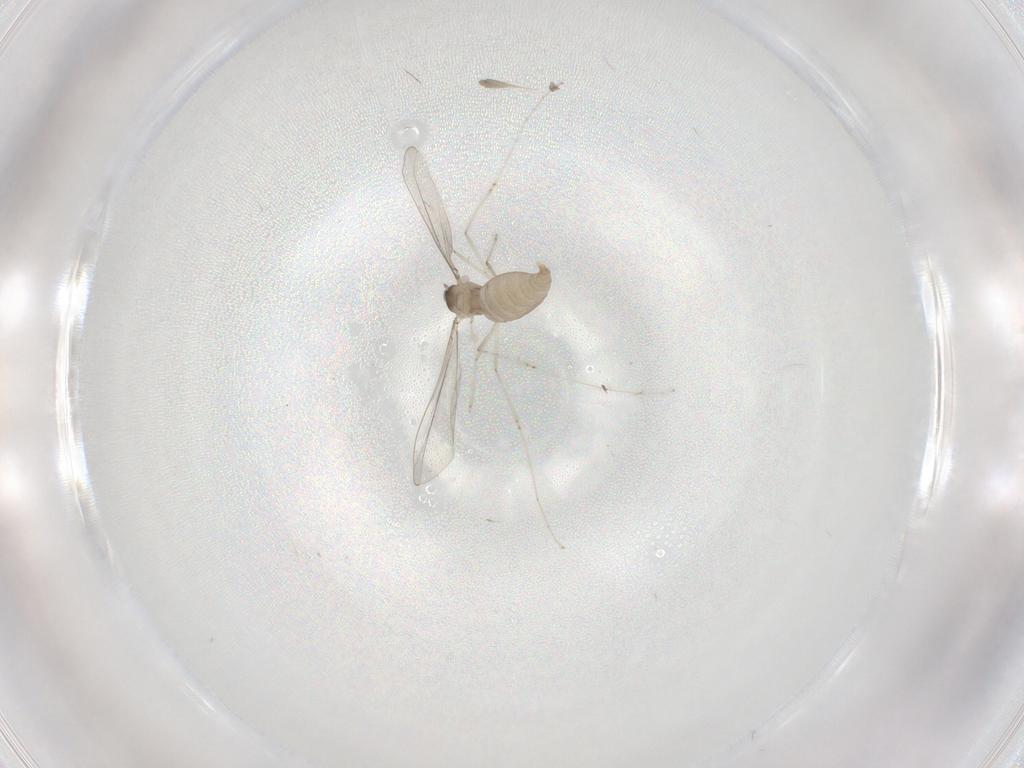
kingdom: Animalia
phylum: Arthropoda
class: Insecta
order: Diptera
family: Cecidomyiidae
